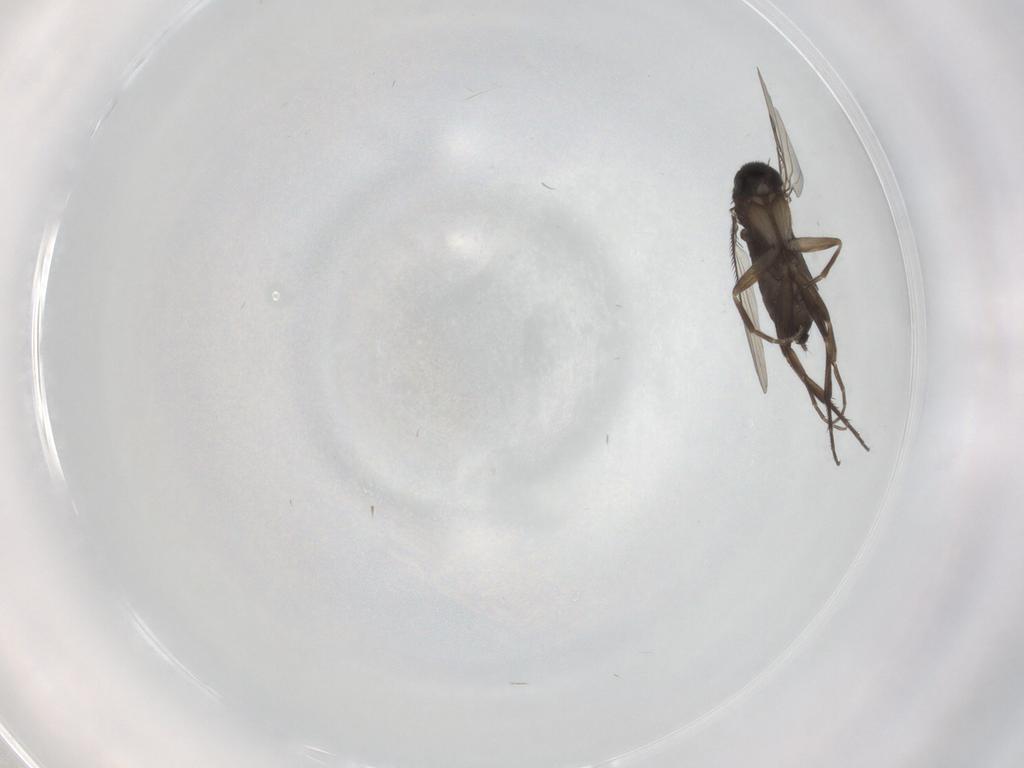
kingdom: Animalia
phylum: Arthropoda
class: Insecta
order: Diptera
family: Phoridae
